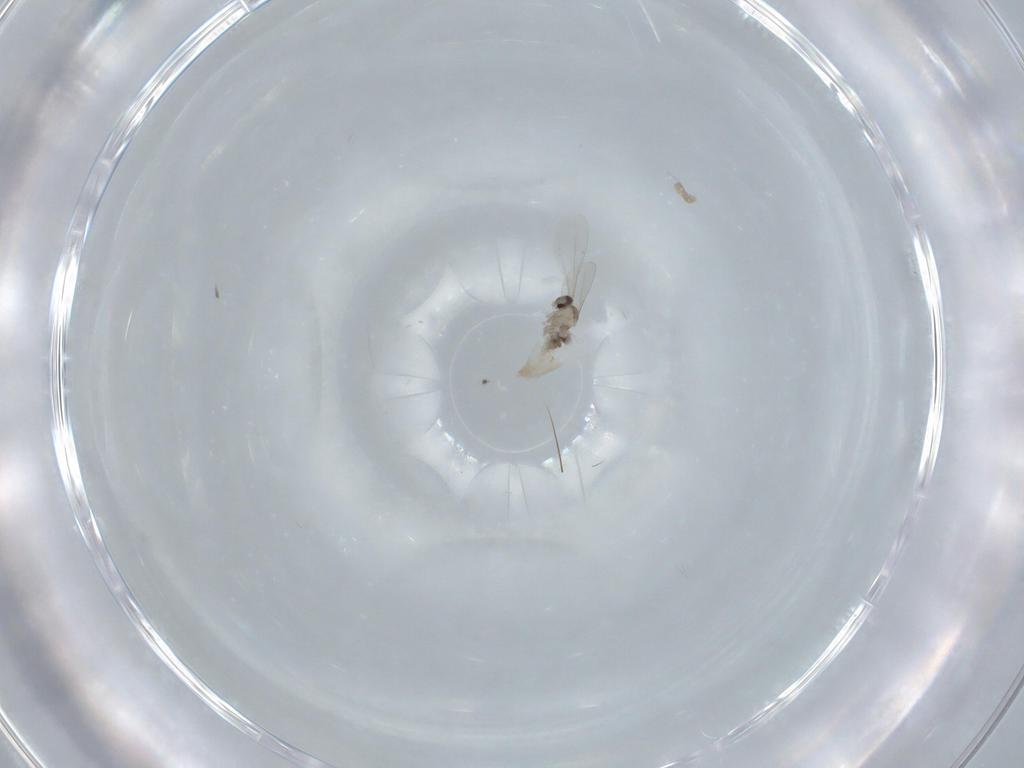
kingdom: Animalia
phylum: Arthropoda
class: Insecta
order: Diptera
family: Cecidomyiidae
